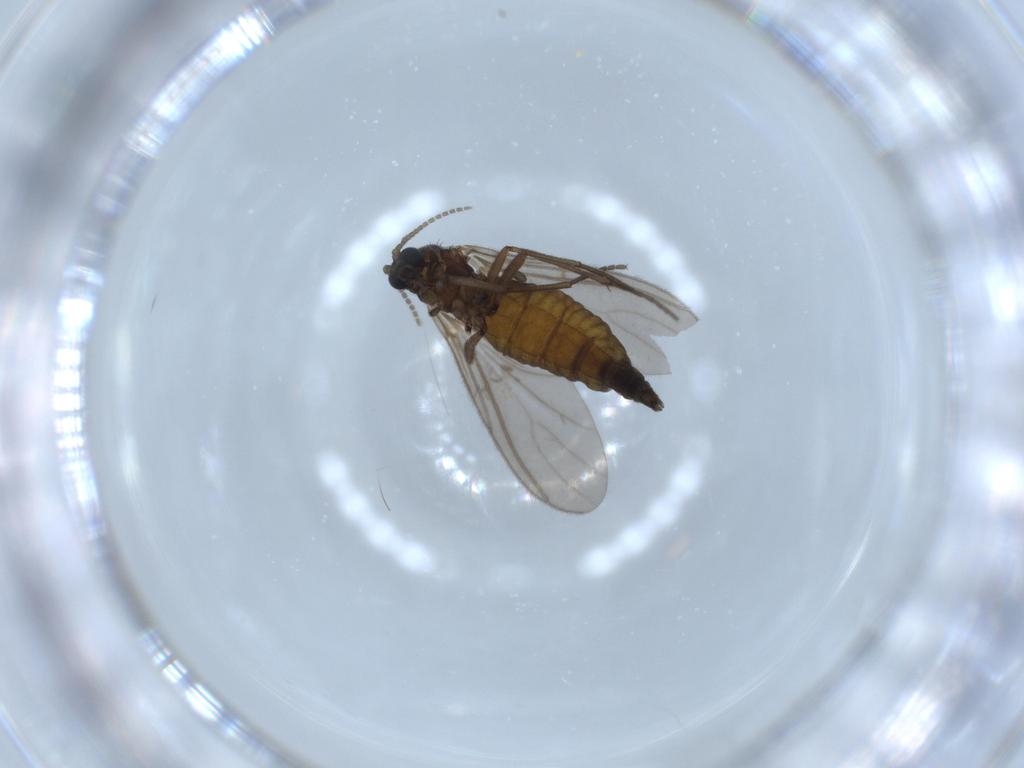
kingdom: Animalia
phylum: Arthropoda
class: Insecta
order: Diptera
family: Sciaridae
